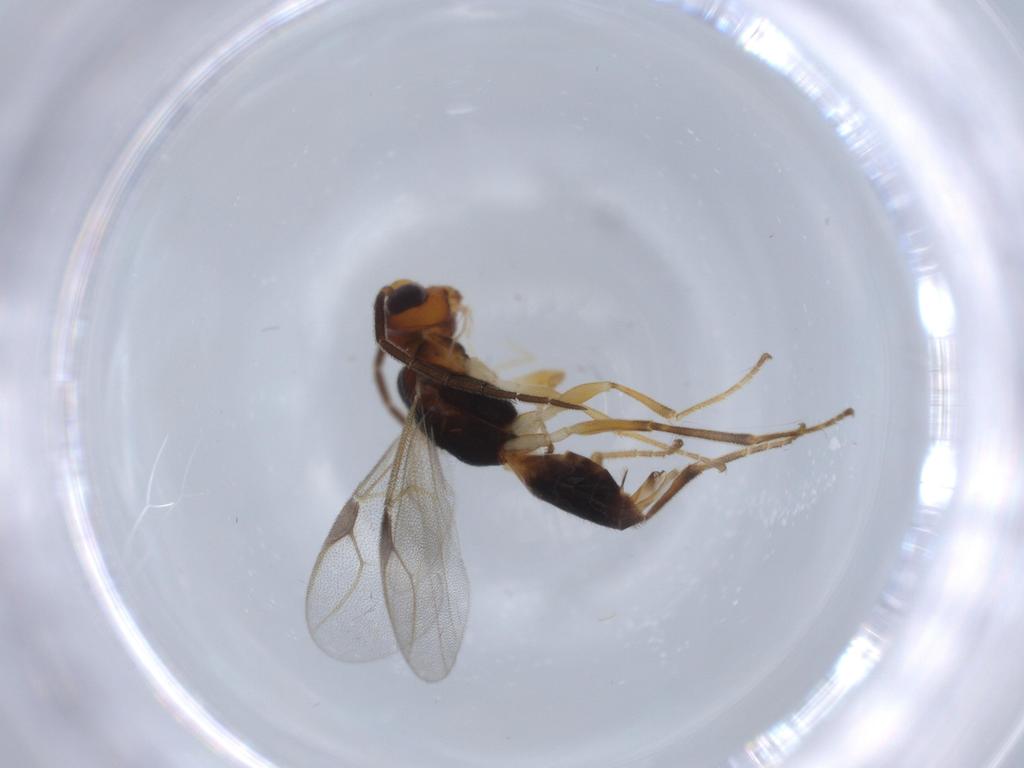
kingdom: Animalia
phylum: Arthropoda
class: Insecta
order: Hymenoptera
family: Dryinidae
